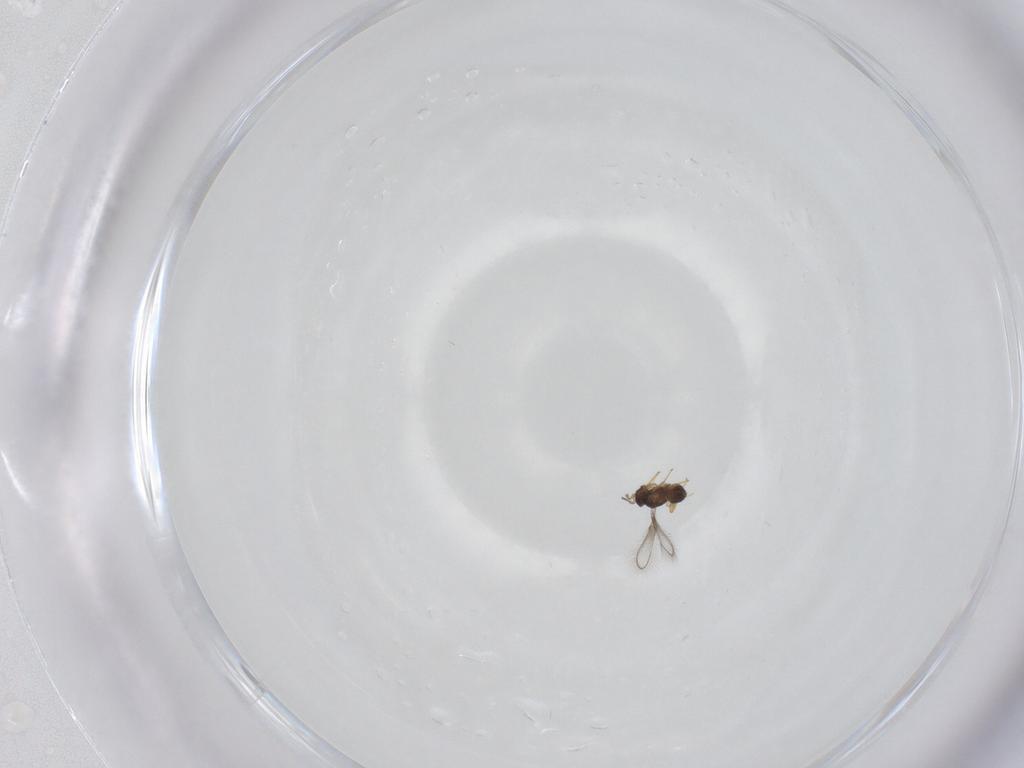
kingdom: Animalia
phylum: Arthropoda
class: Insecta
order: Hymenoptera
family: Mymaridae
